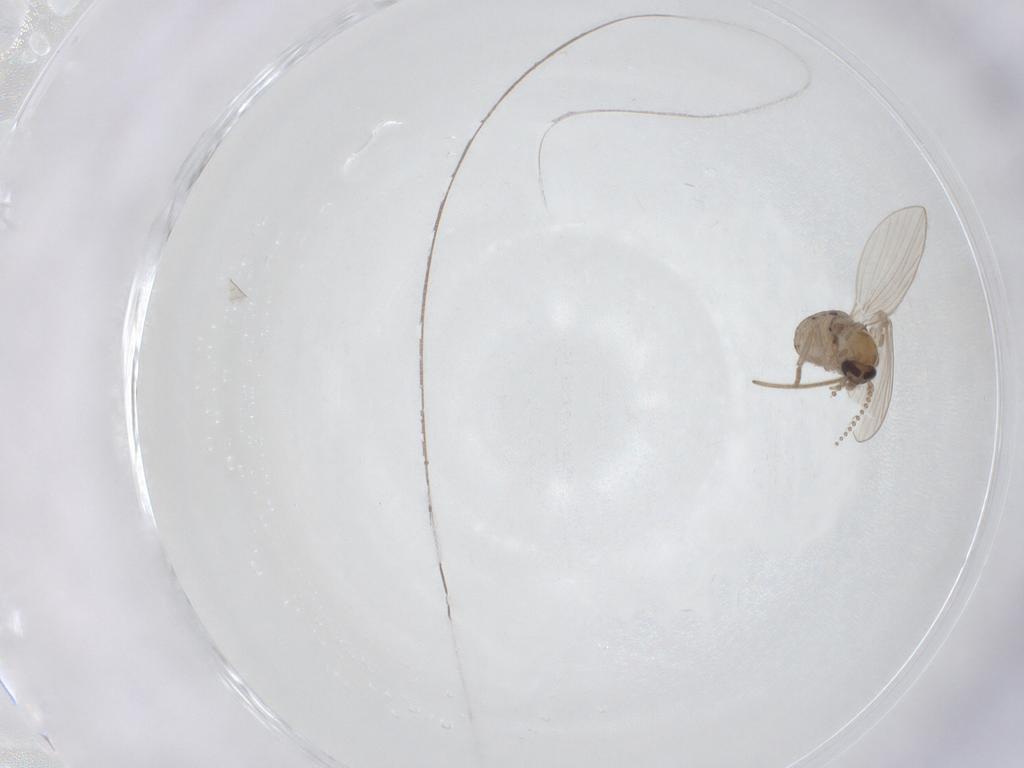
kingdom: Animalia
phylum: Arthropoda
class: Insecta
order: Diptera
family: Psychodidae
